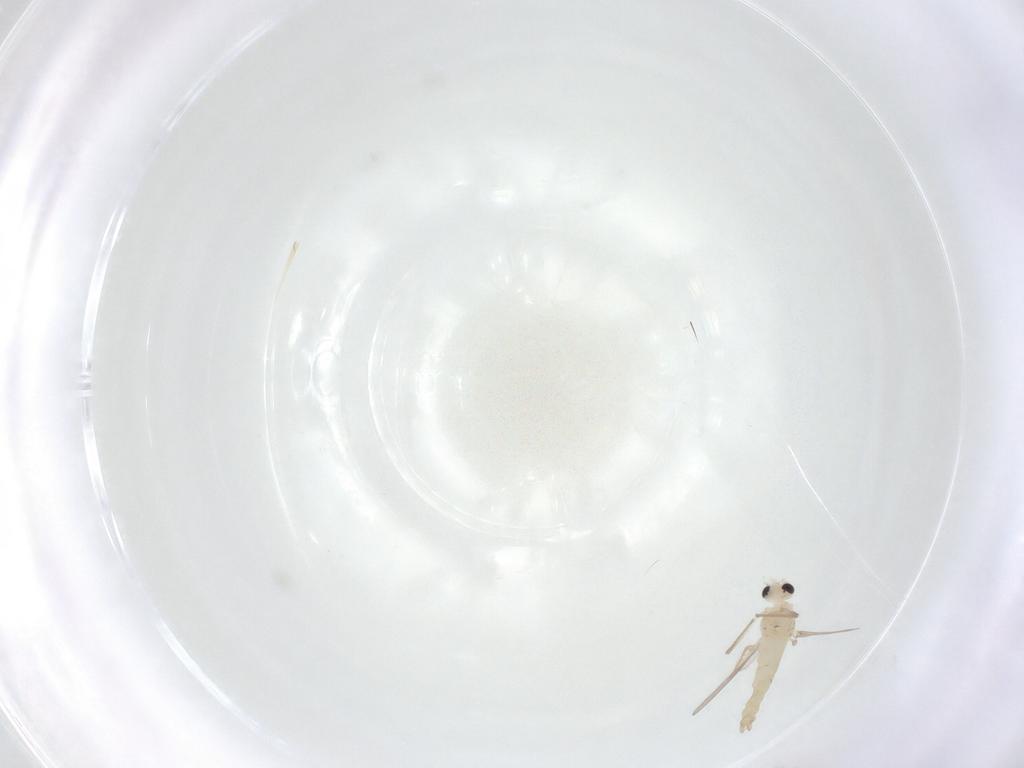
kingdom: Animalia
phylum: Arthropoda
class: Insecta
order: Diptera
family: Chironomidae
